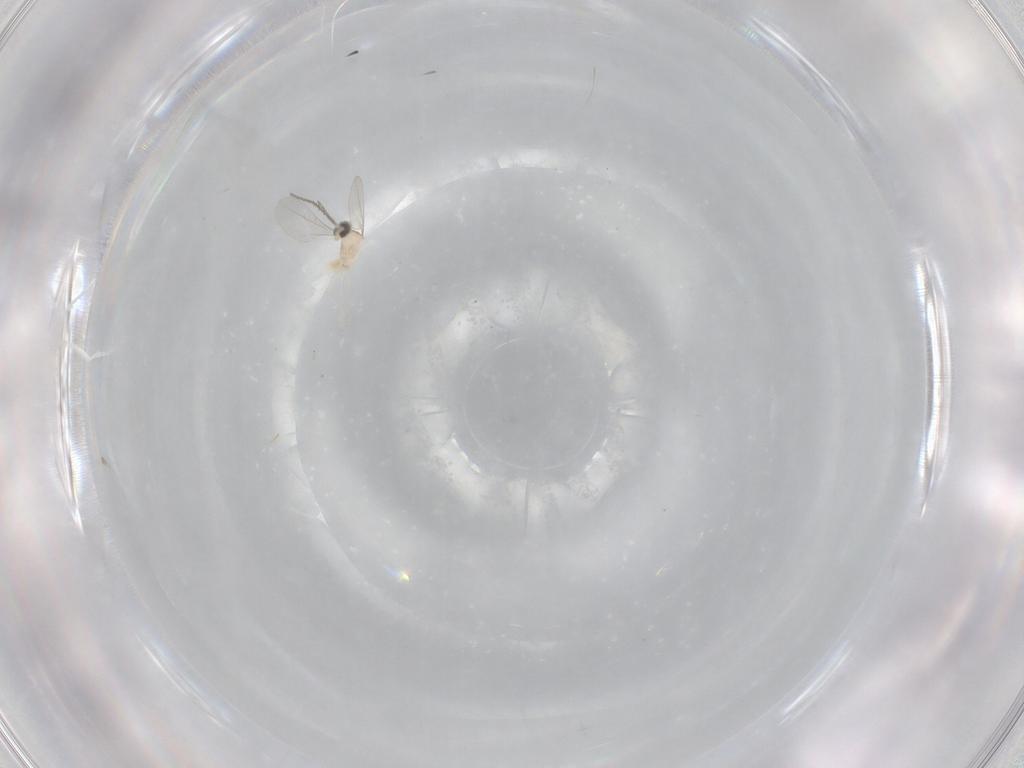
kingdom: Animalia
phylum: Arthropoda
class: Insecta
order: Diptera
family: Cecidomyiidae
